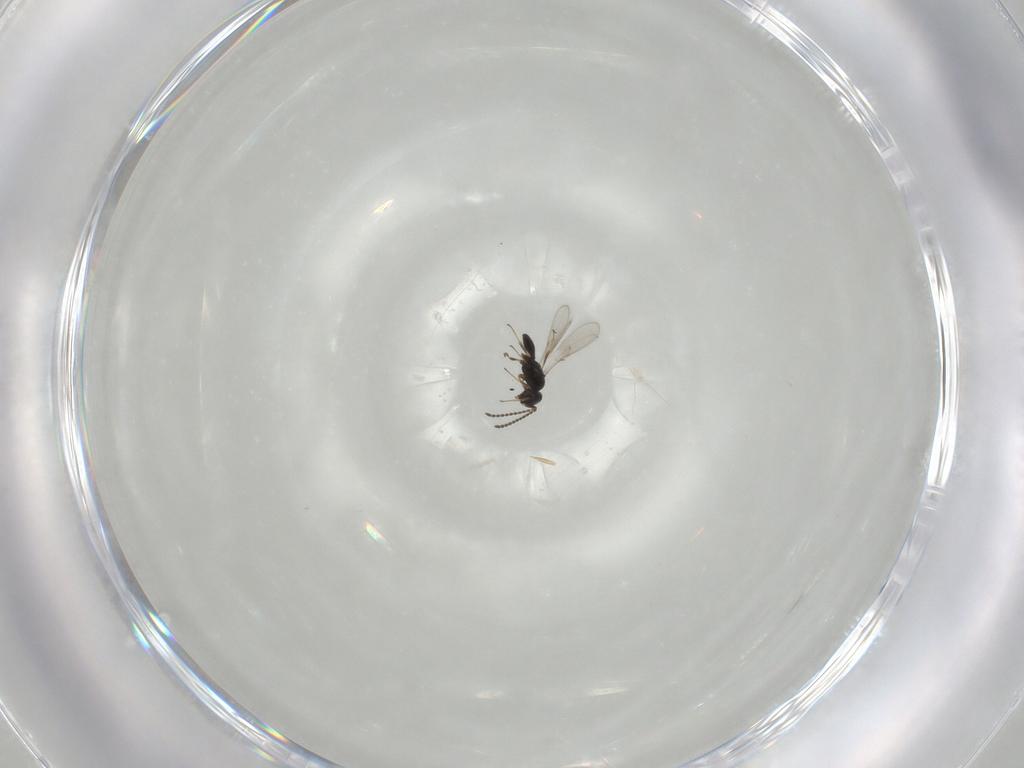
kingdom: Animalia
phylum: Arthropoda
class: Insecta
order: Hymenoptera
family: Scelionidae
